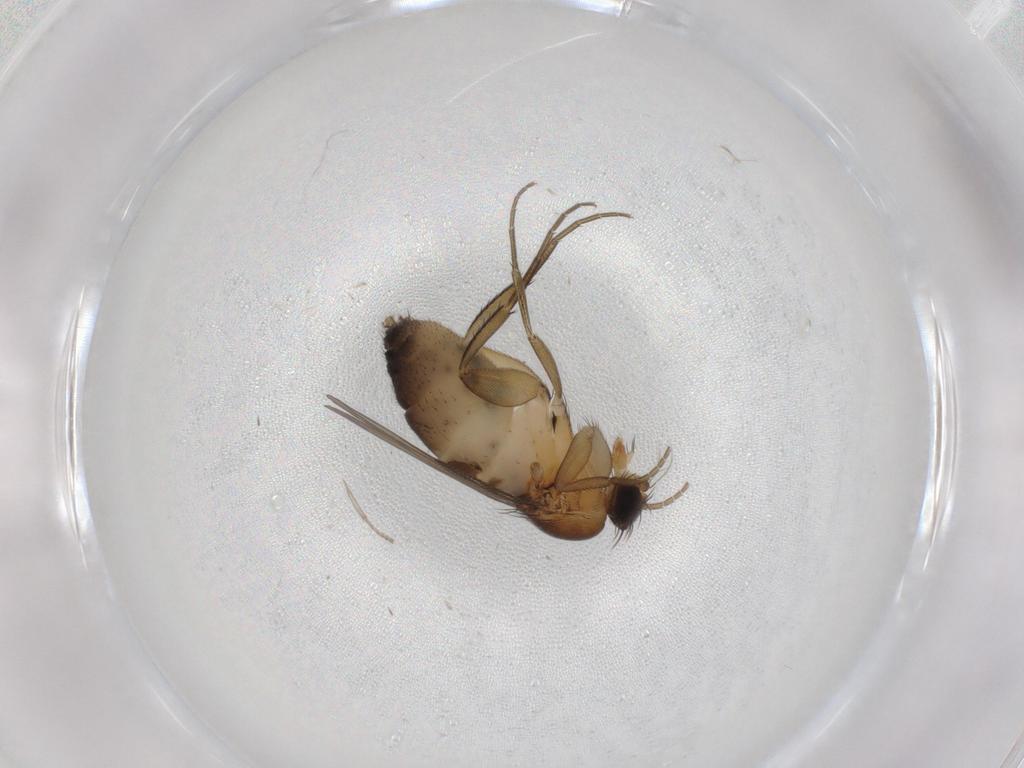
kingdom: Animalia
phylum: Arthropoda
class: Insecta
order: Diptera
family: Phoridae
